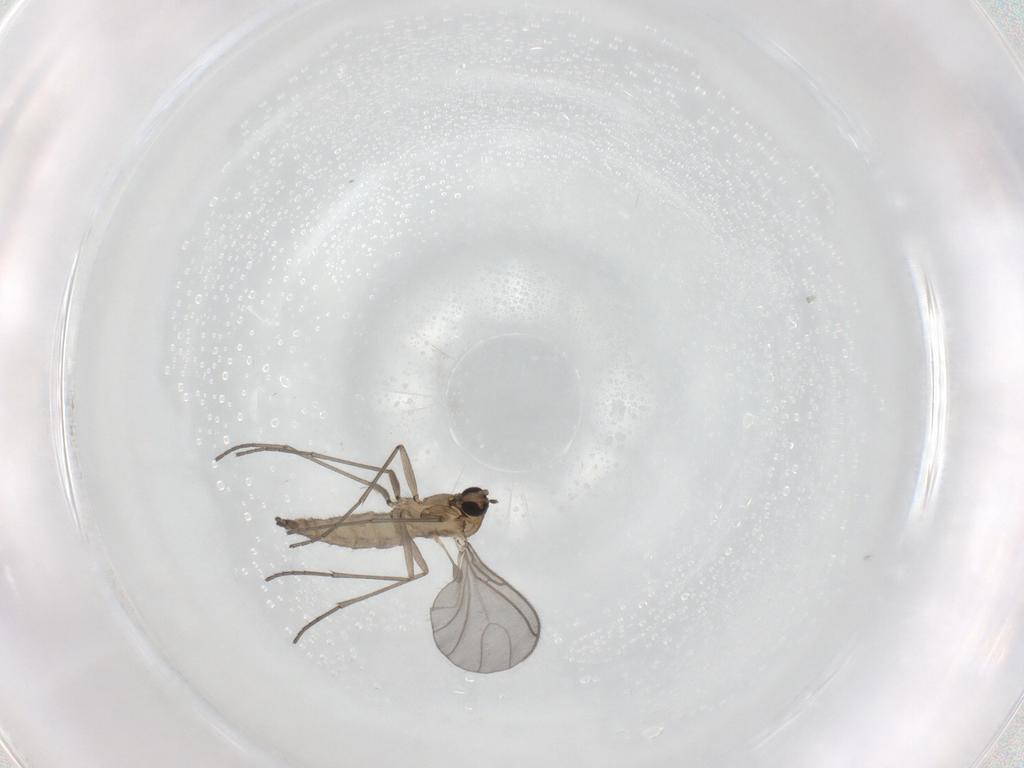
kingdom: Animalia
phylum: Arthropoda
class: Insecta
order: Diptera
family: Sciaridae
